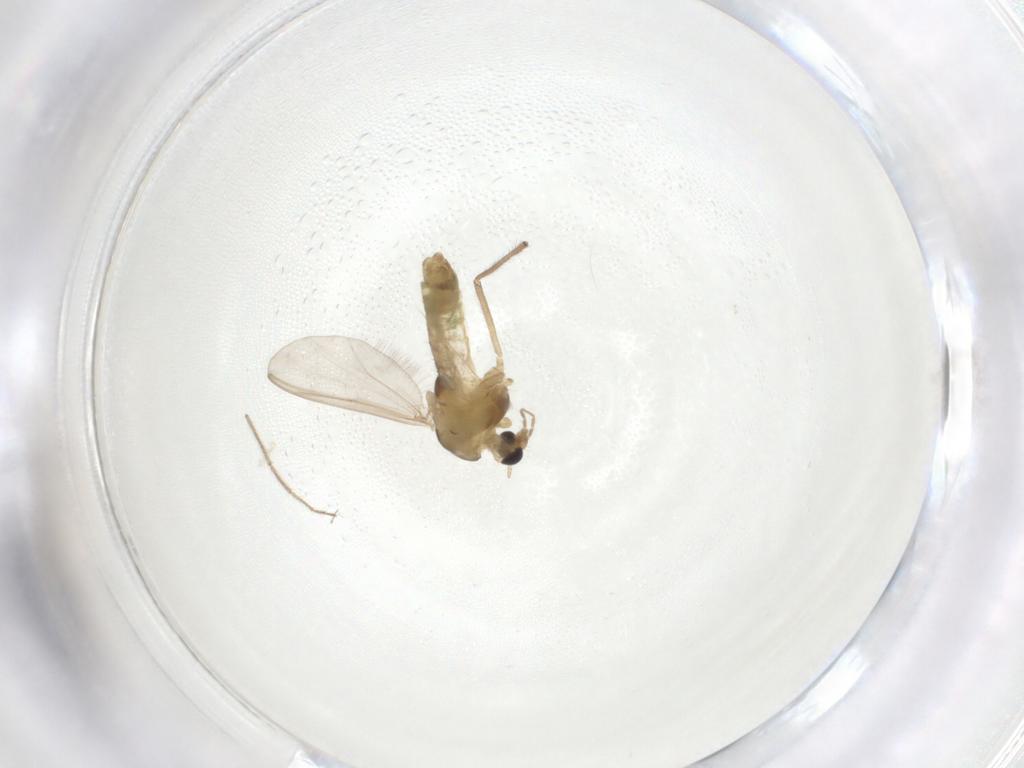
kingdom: Animalia
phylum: Arthropoda
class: Insecta
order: Diptera
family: Chironomidae
